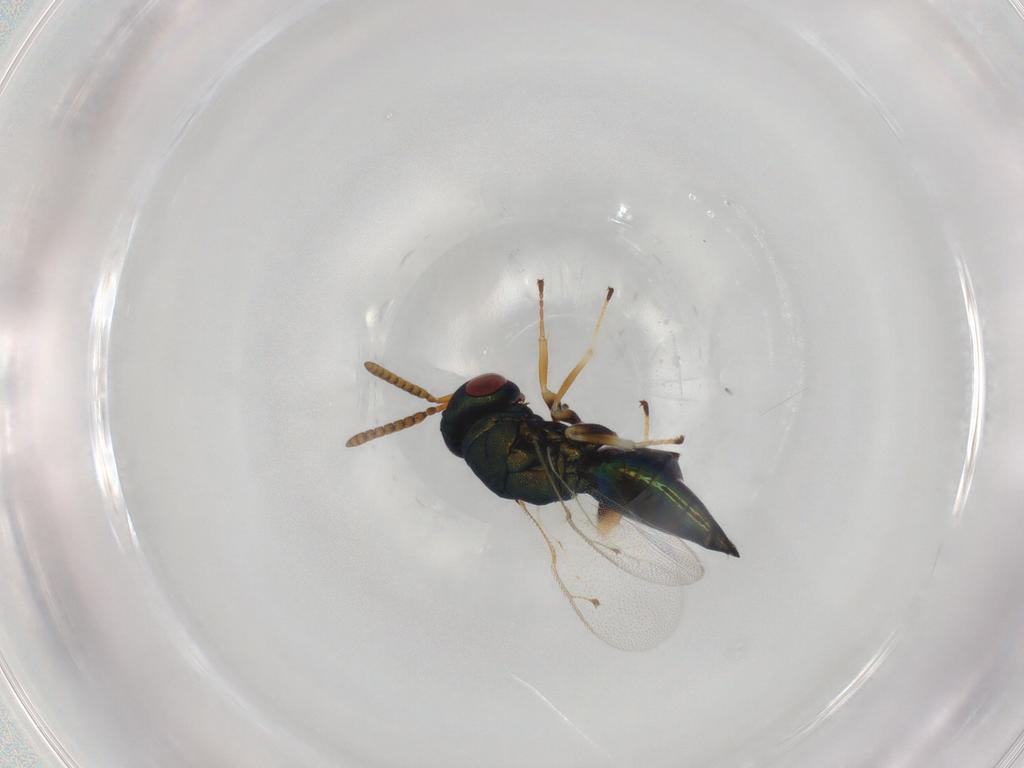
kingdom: Animalia
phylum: Arthropoda
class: Insecta
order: Hymenoptera
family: Pteromalidae
